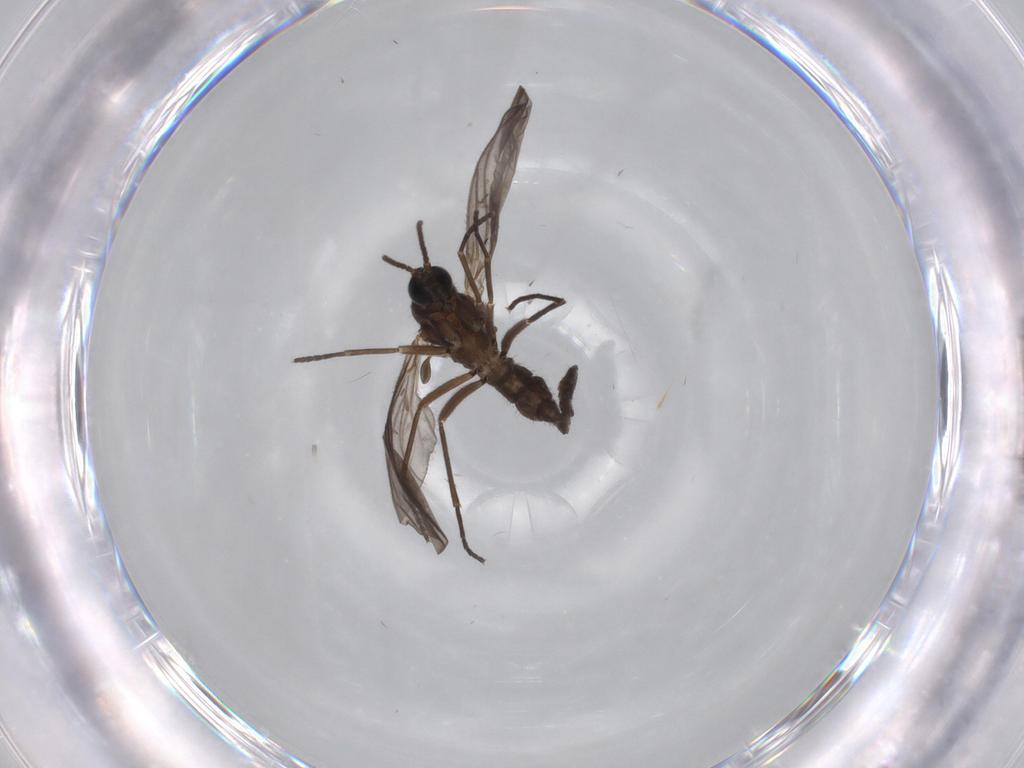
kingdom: Animalia
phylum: Arthropoda
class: Insecta
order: Diptera
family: Sciaridae
